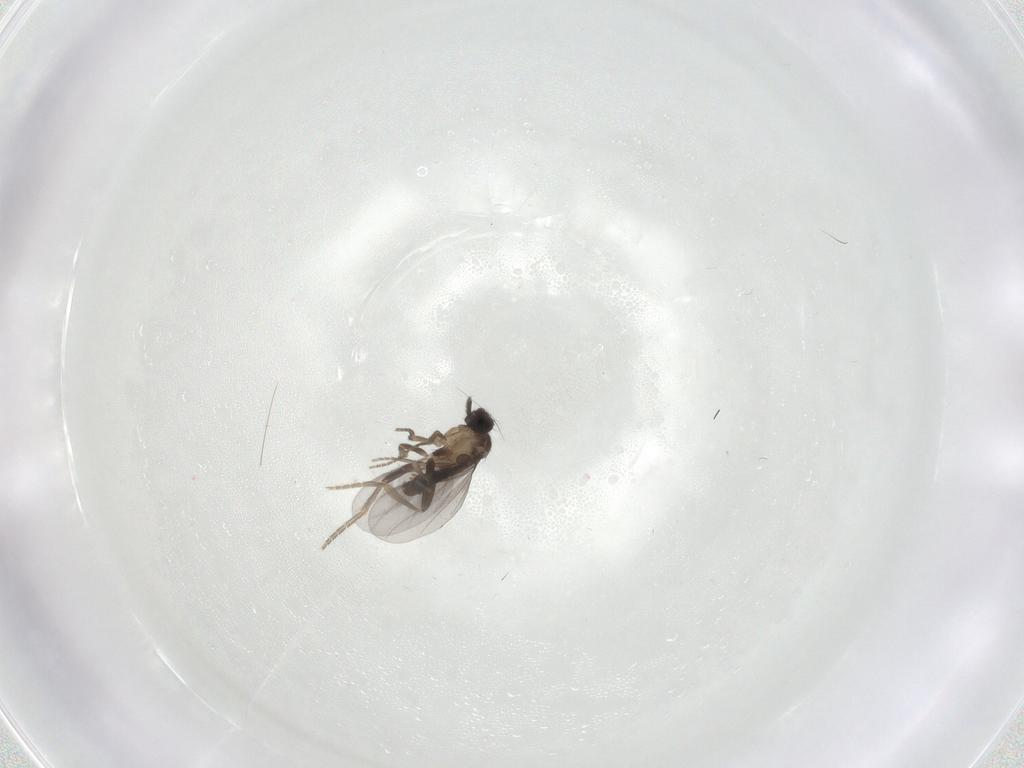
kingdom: Animalia
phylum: Arthropoda
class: Insecta
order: Diptera
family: Chironomidae
